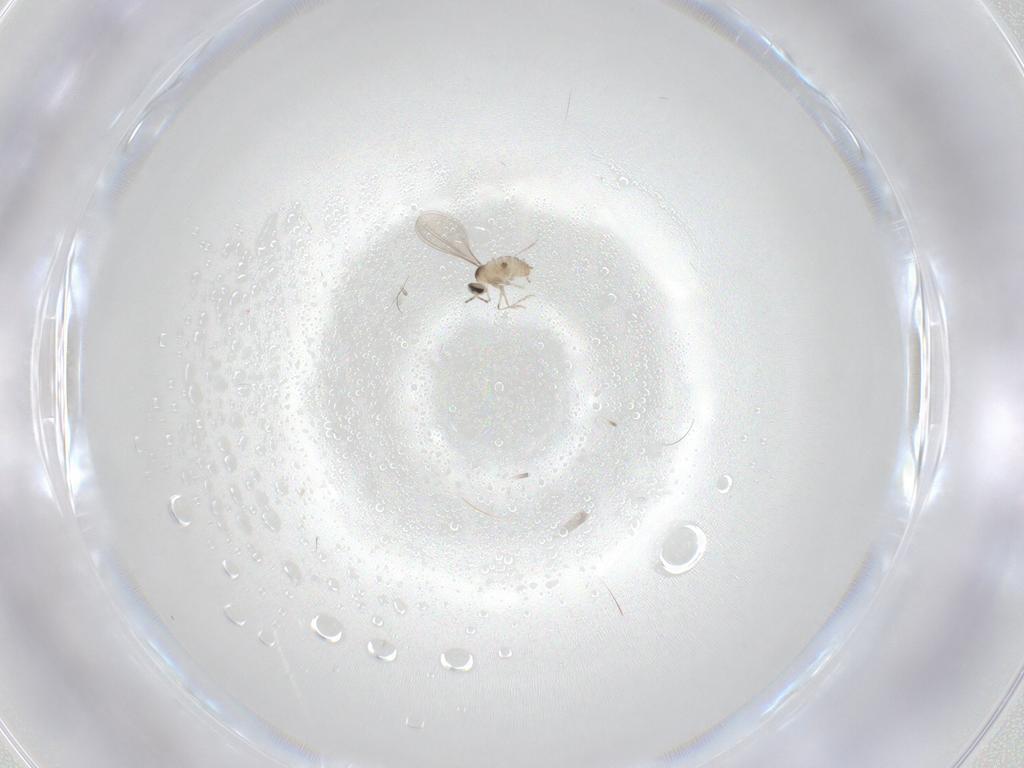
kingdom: Animalia
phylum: Arthropoda
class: Insecta
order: Diptera
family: Cecidomyiidae
